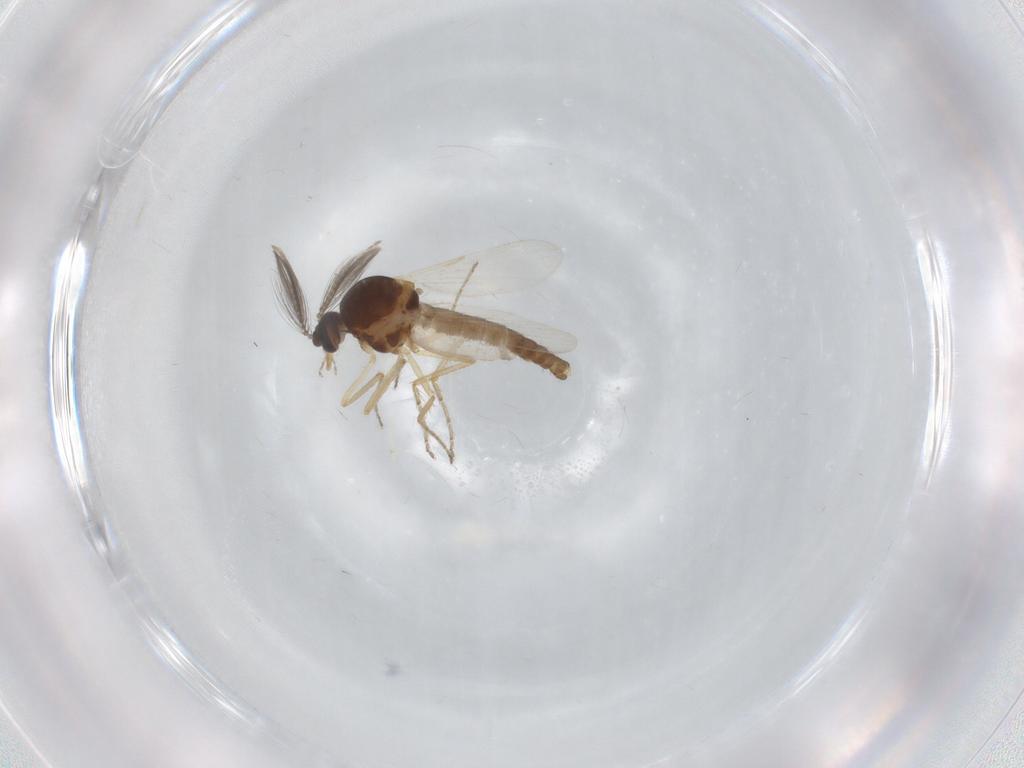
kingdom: Animalia
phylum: Arthropoda
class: Insecta
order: Diptera
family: Ceratopogonidae
